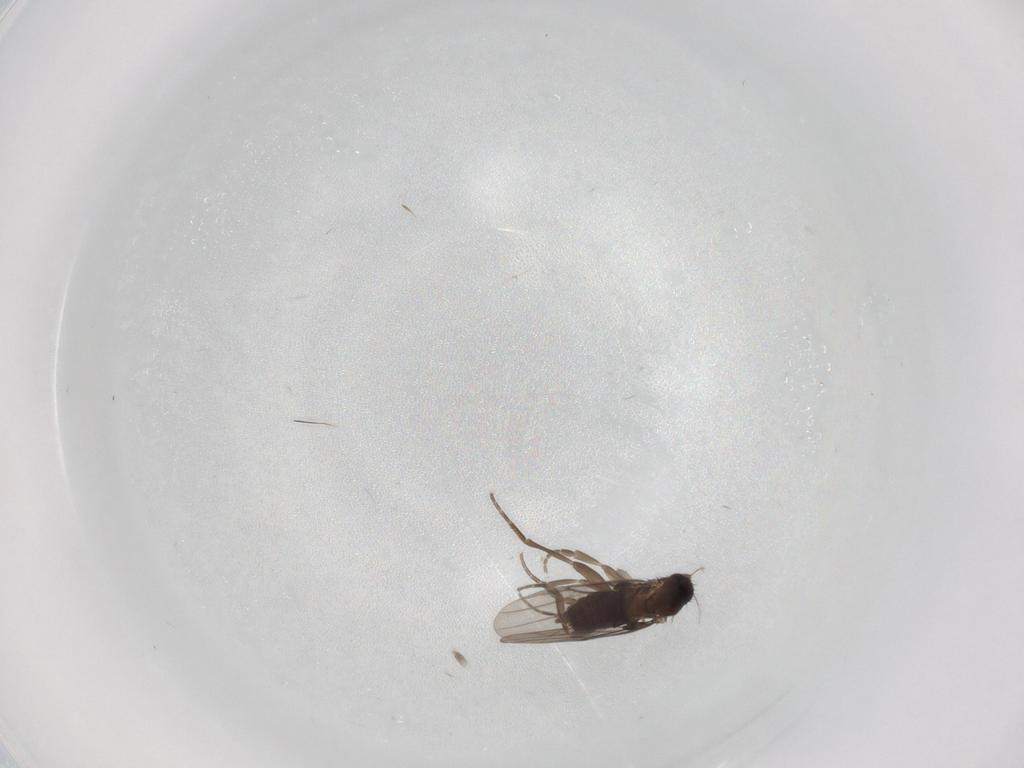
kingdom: Animalia
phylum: Arthropoda
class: Insecta
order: Diptera
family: Phoridae
